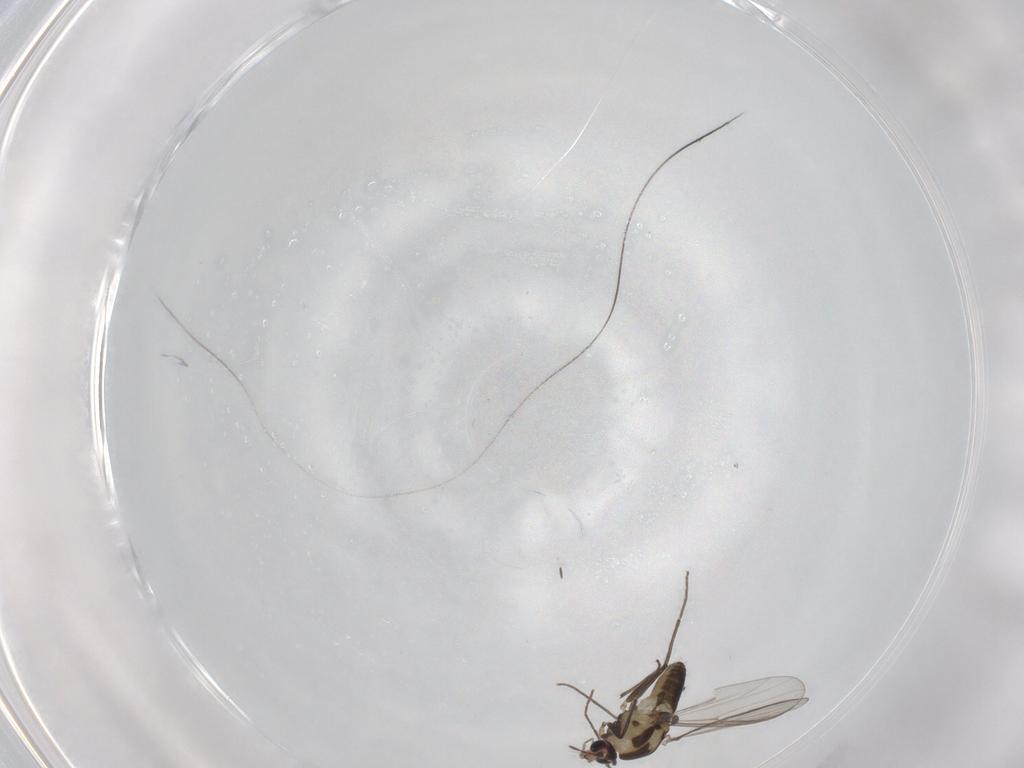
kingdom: Animalia
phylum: Arthropoda
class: Insecta
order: Diptera
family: Chironomidae
